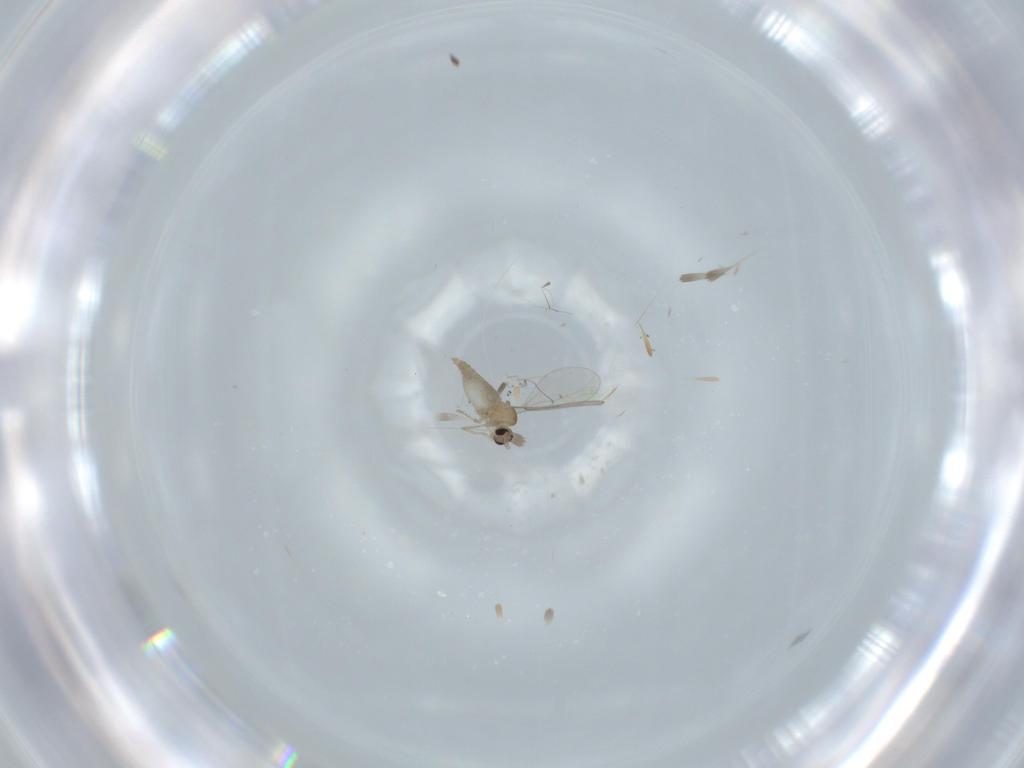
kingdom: Animalia
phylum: Arthropoda
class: Insecta
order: Diptera
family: Cecidomyiidae
